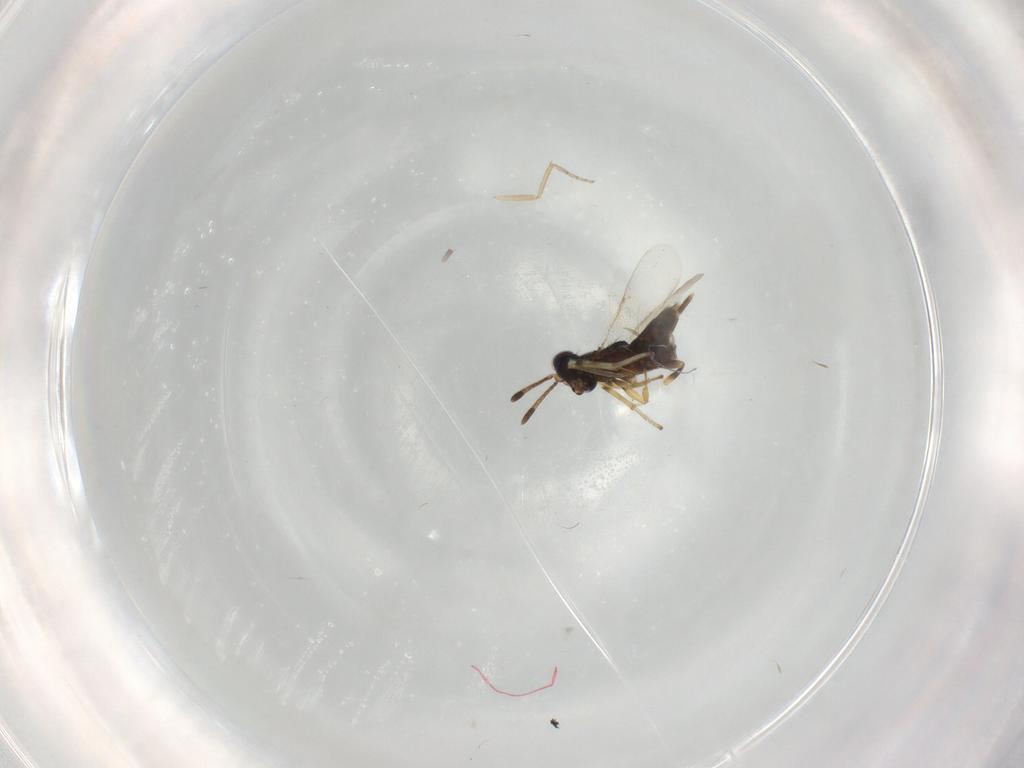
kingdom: Animalia
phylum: Arthropoda
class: Insecta
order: Hymenoptera
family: Dryinidae
